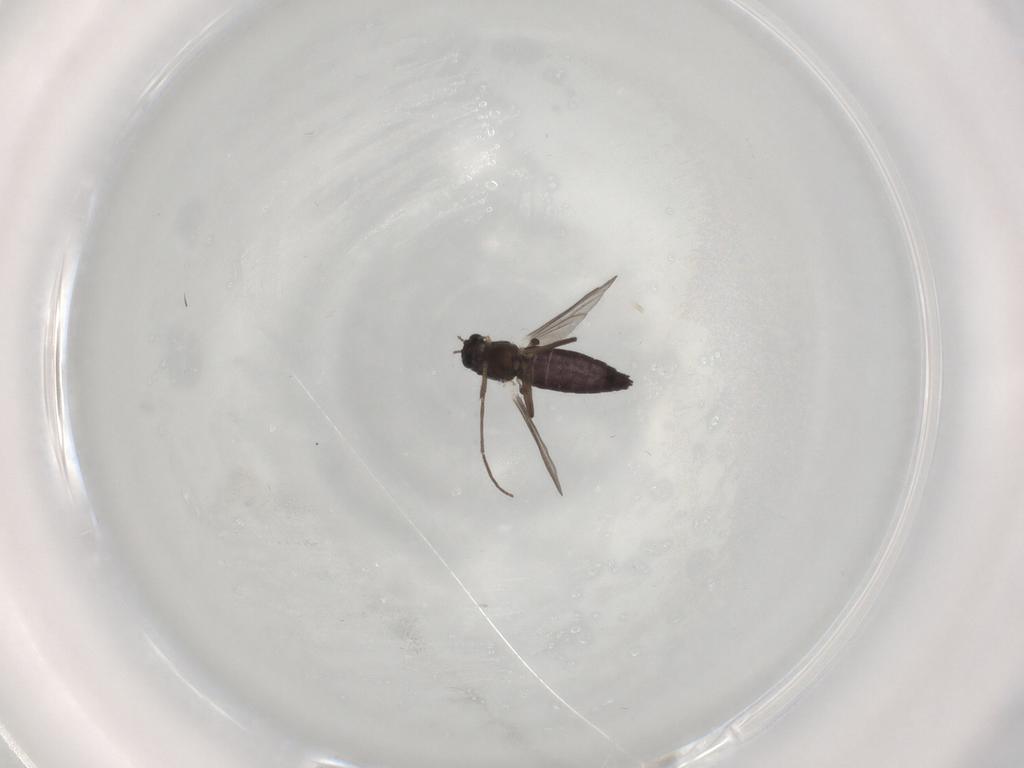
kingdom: Animalia
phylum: Arthropoda
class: Insecta
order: Diptera
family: Chironomidae
